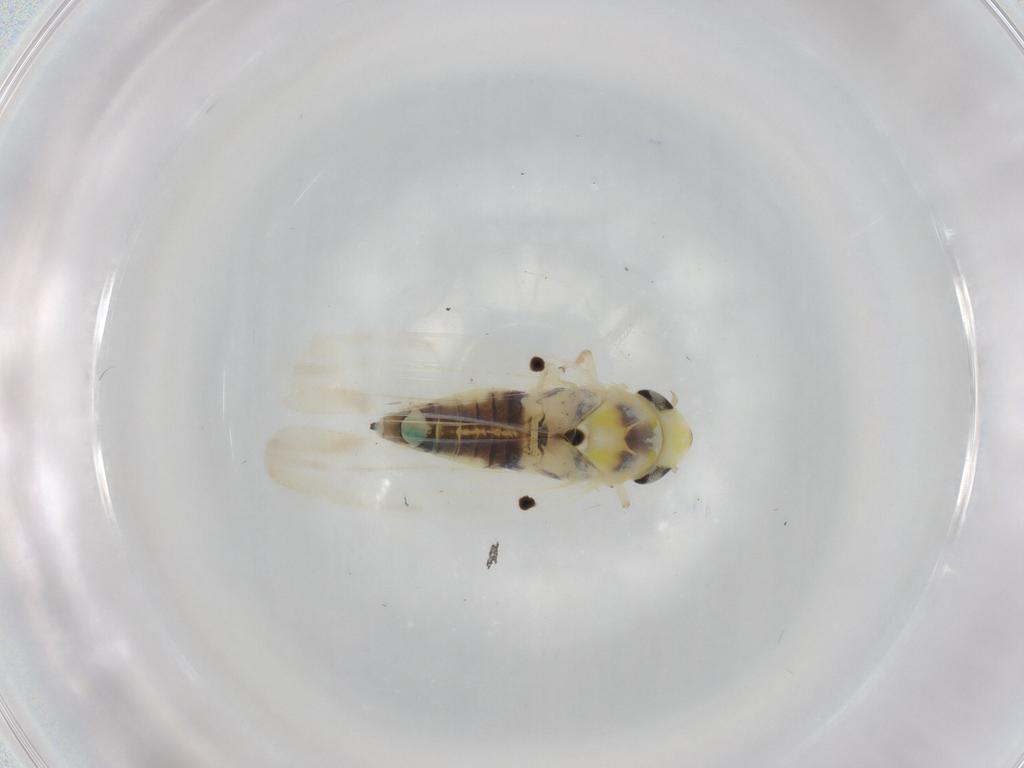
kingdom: Animalia
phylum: Arthropoda
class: Insecta
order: Hemiptera
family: Cicadellidae
